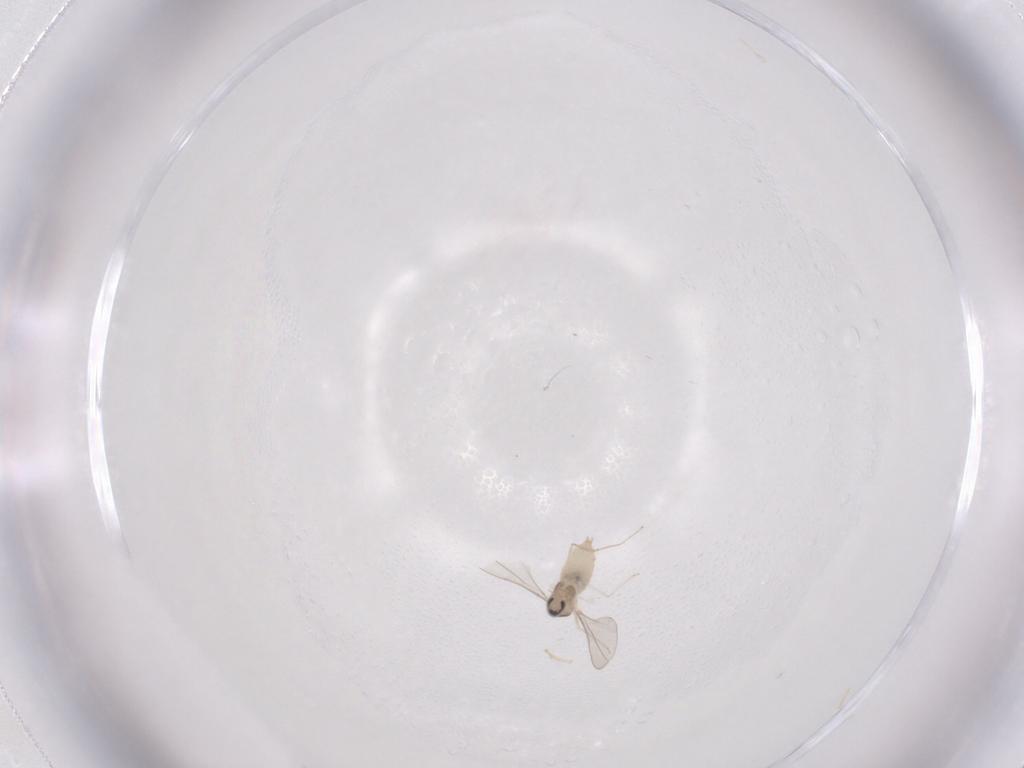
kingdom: Animalia
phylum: Arthropoda
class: Insecta
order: Diptera
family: Cecidomyiidae
